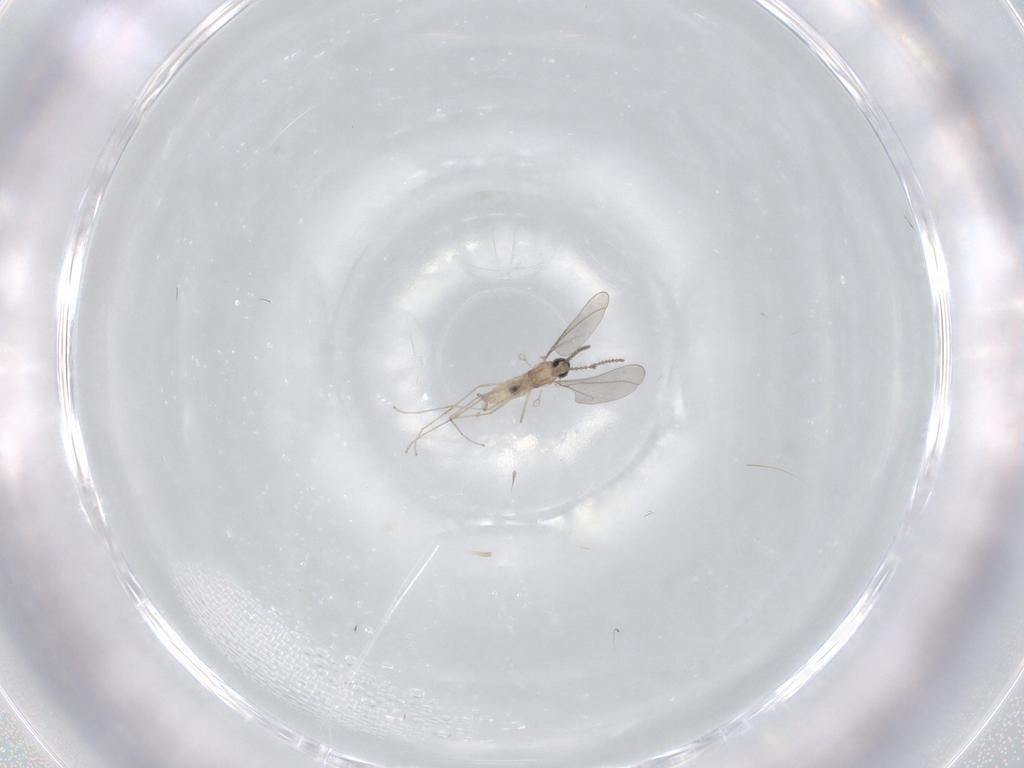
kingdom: Animalia
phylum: Arthropoda
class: Insecta
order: Diptera
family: Cecidomyiidae
